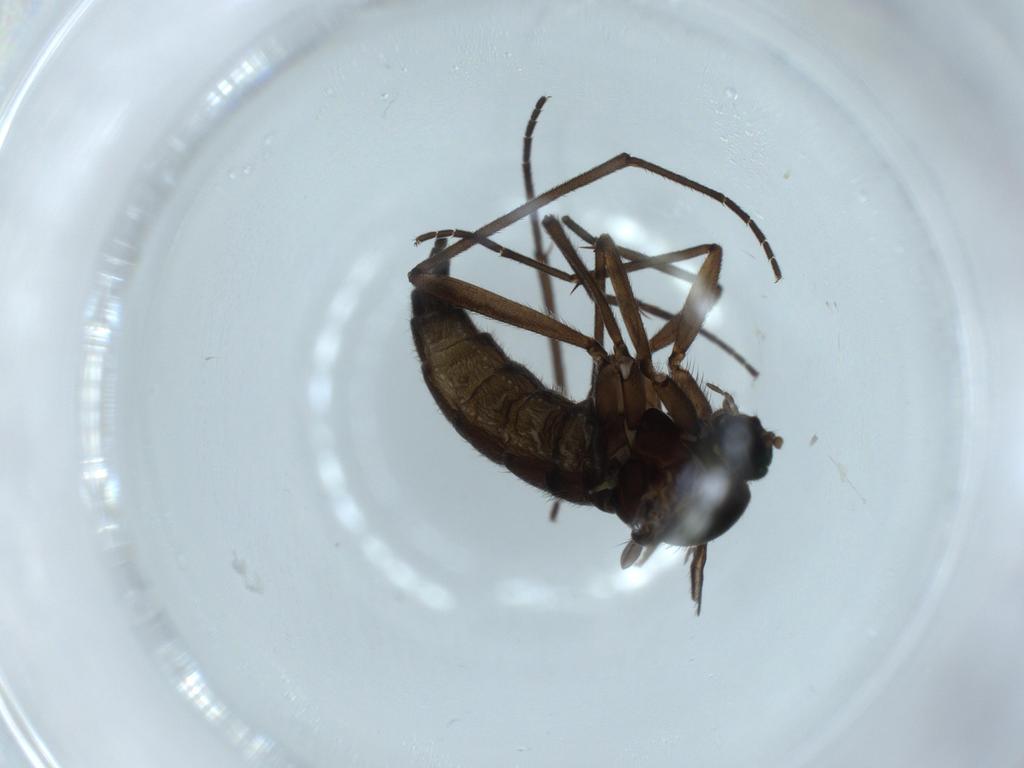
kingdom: Animalia
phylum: Arthropoda
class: Insecta
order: Diptera
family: Sciaridae
